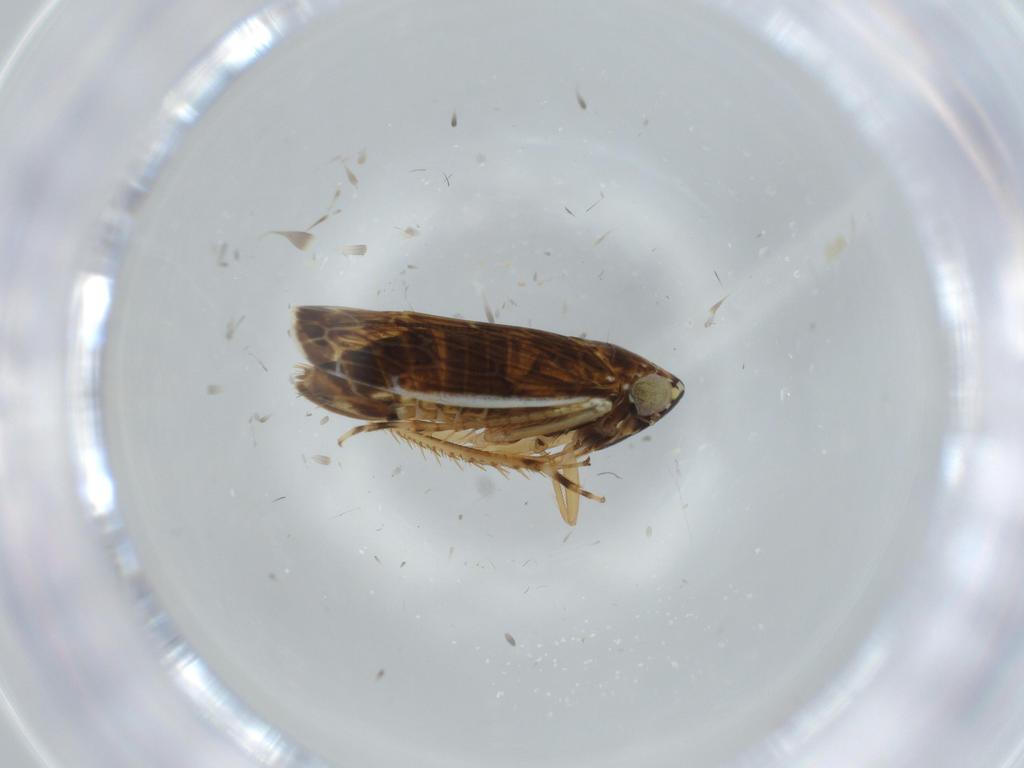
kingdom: Animalia
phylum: Arthropoda
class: Insecta
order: Hemiptera
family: Cicadellidae
